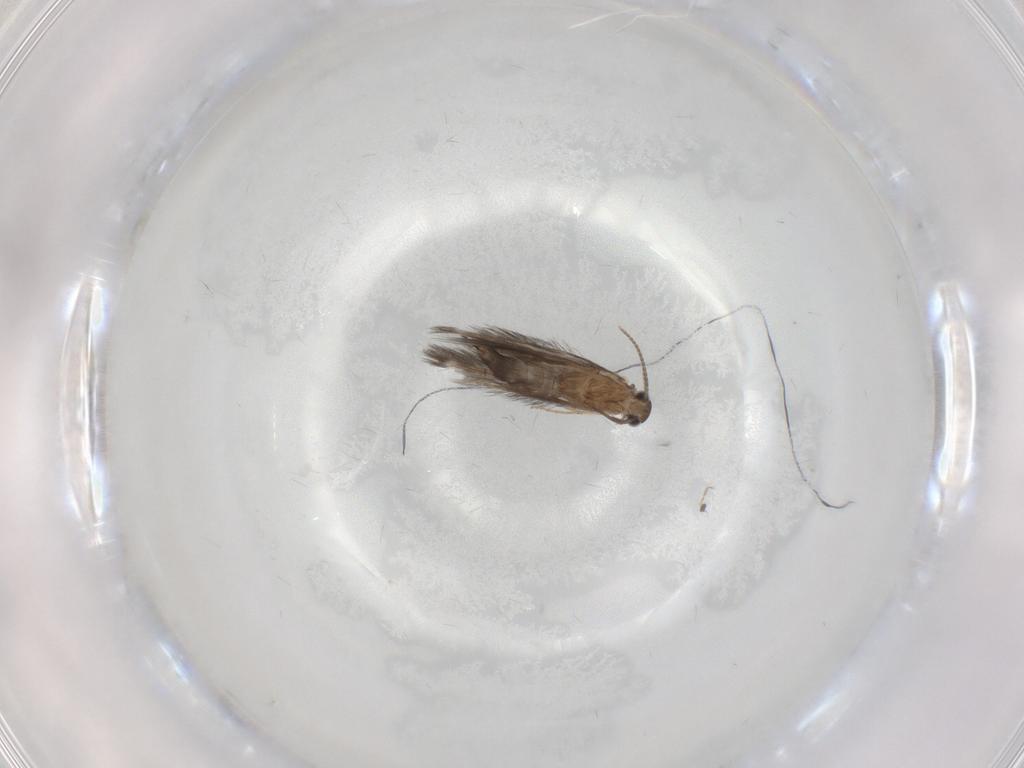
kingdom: Animalia
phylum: Arthropoda
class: Insecta
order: Trichoptera
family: Hydroptilidae
